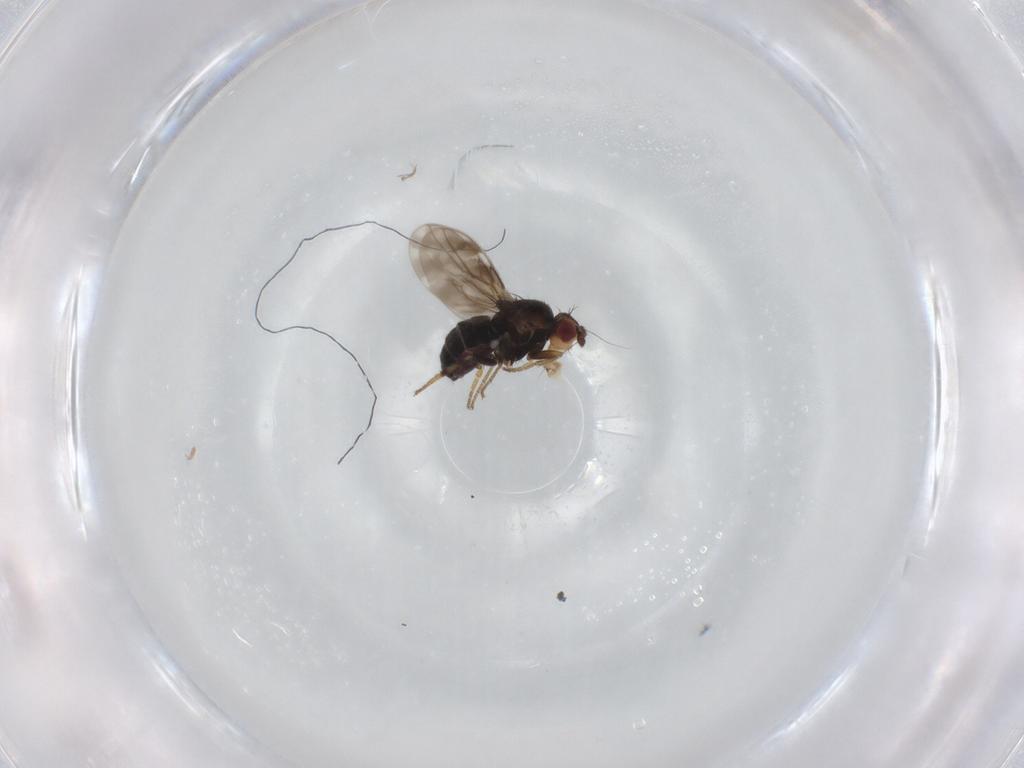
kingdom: Animalia
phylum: Arthropoda
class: Insecta
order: Diptera
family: Sphaeroceridae
